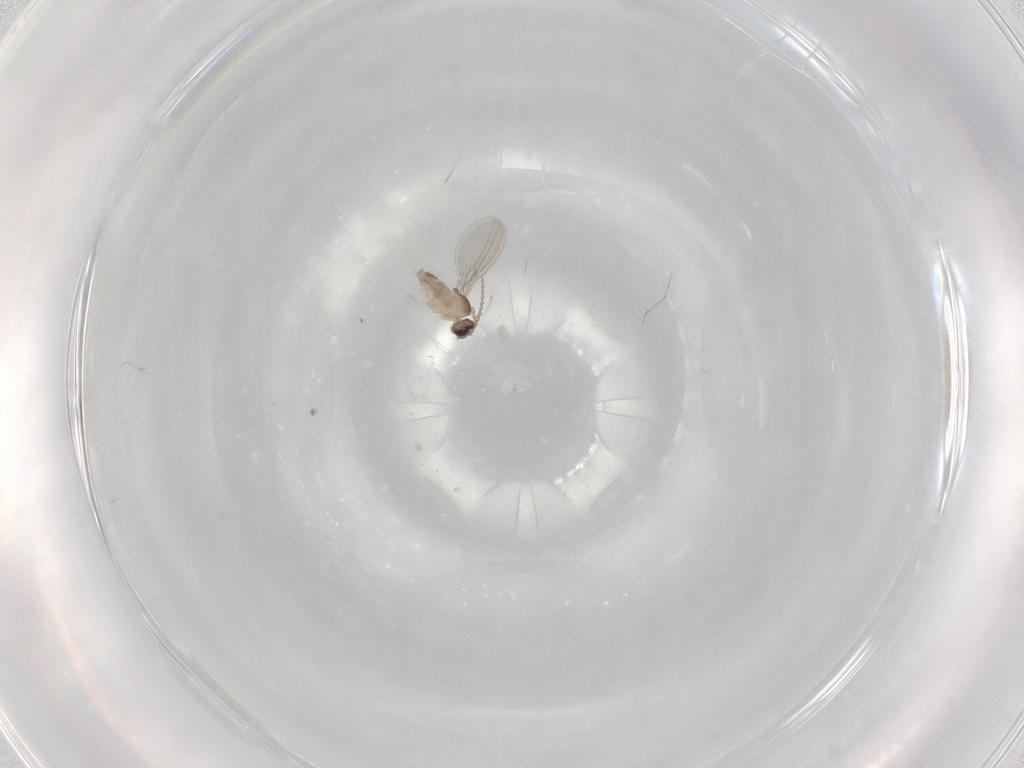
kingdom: Animalia
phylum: Arthropoda
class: Insecta
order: Diptera
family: Cecidomyiidae
